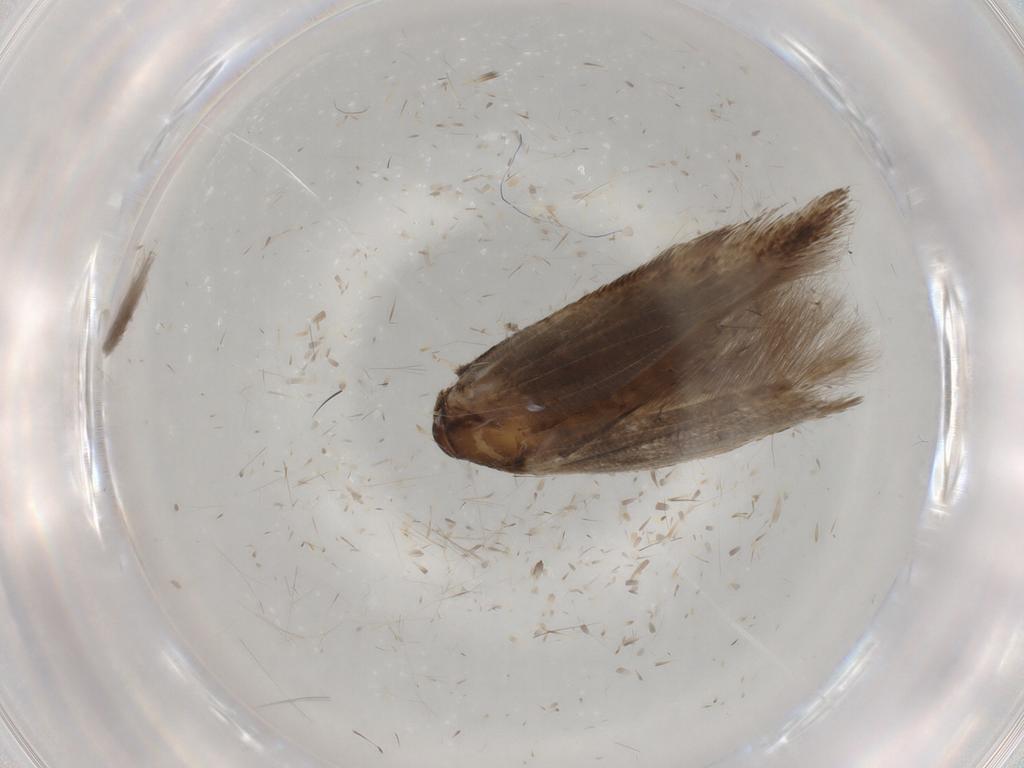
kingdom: Animalia
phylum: Arthropoda
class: Insecta
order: Lepidoptera
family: Cosmopterigidae
